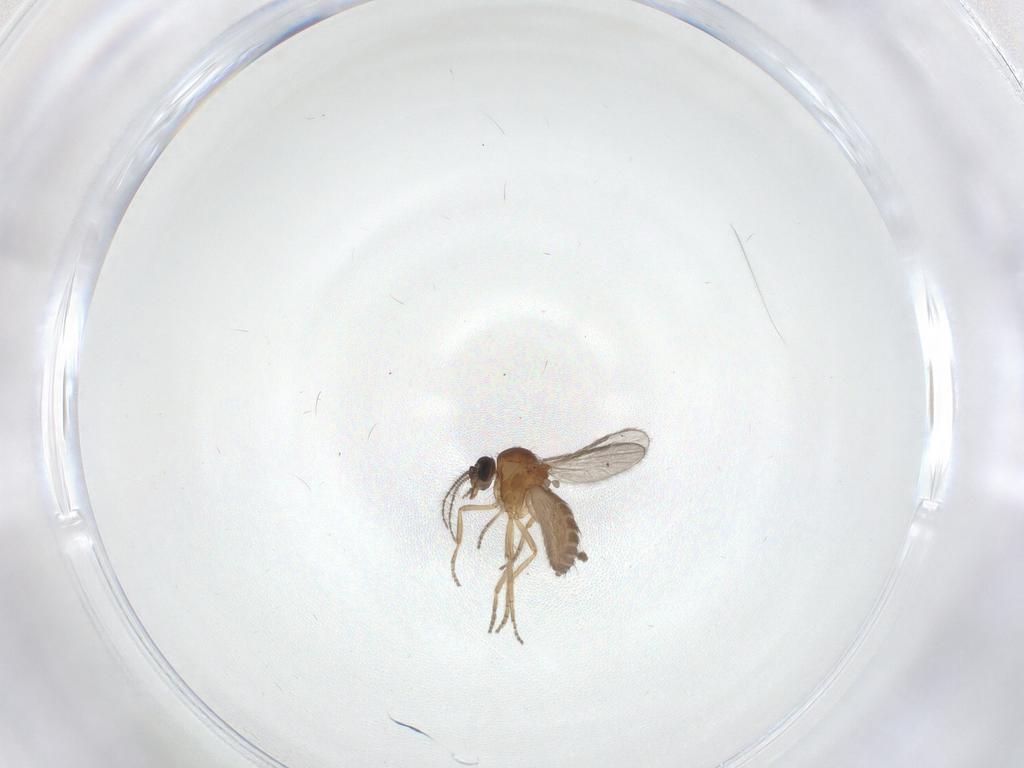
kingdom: Animalia
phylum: Arthropoda
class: Insecta
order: Diptera
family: Ceratopogonidae
